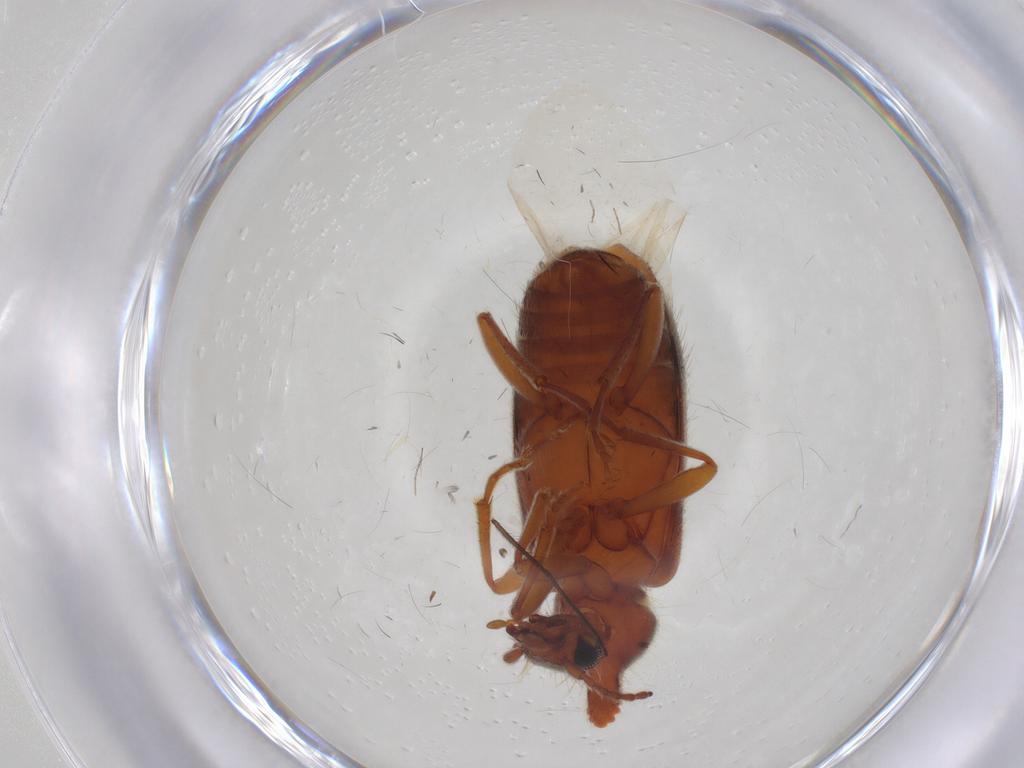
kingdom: Animalia
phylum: Arthropoda
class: Insecta
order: Coleoptera
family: Anthicidae
